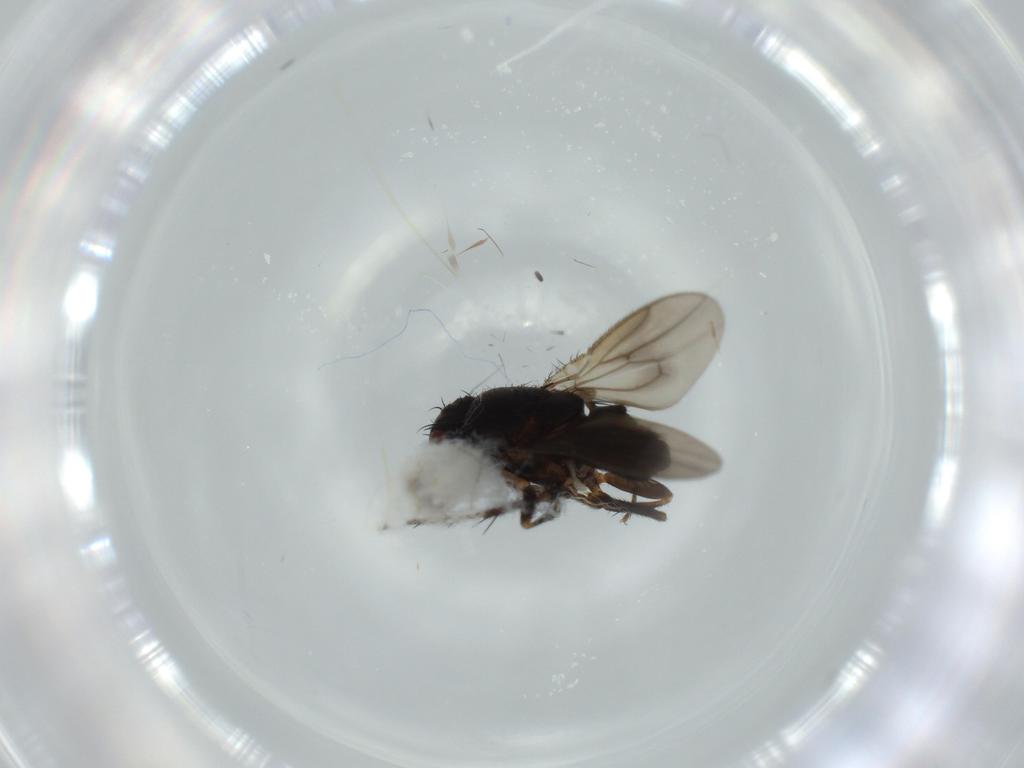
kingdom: Animalia
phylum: Arthropoda
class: Insecta
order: Diptera
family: Phoridae
